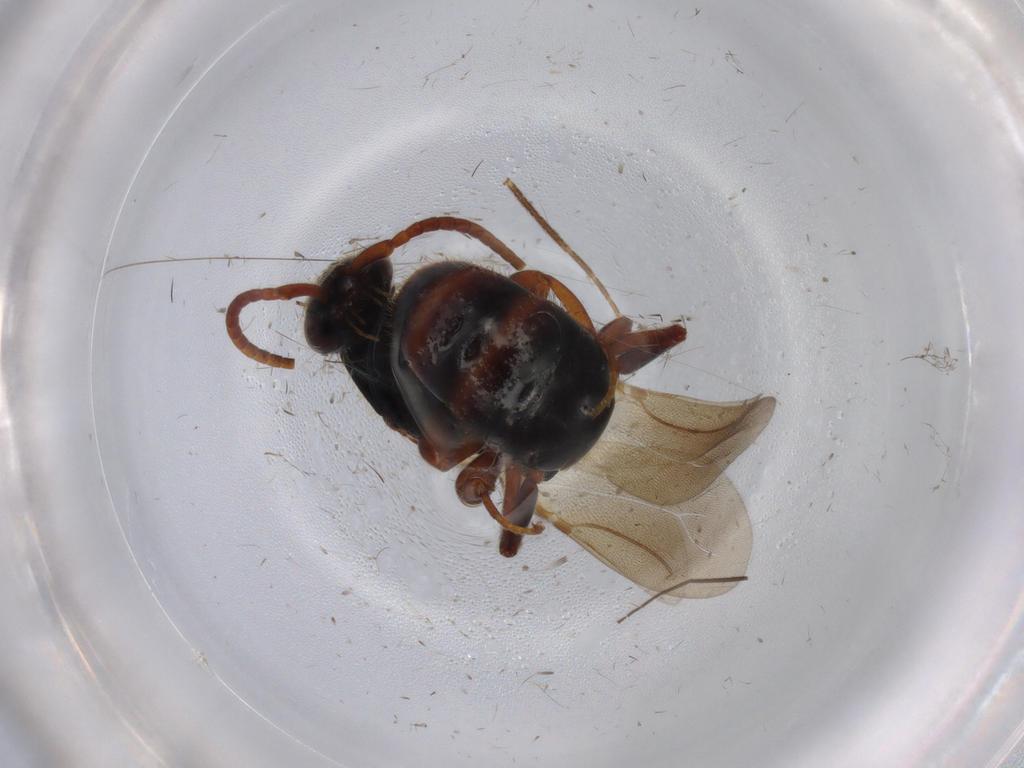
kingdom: Animalia
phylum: Arthropoda
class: Insecta
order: Hymenoptera
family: Formicidae
